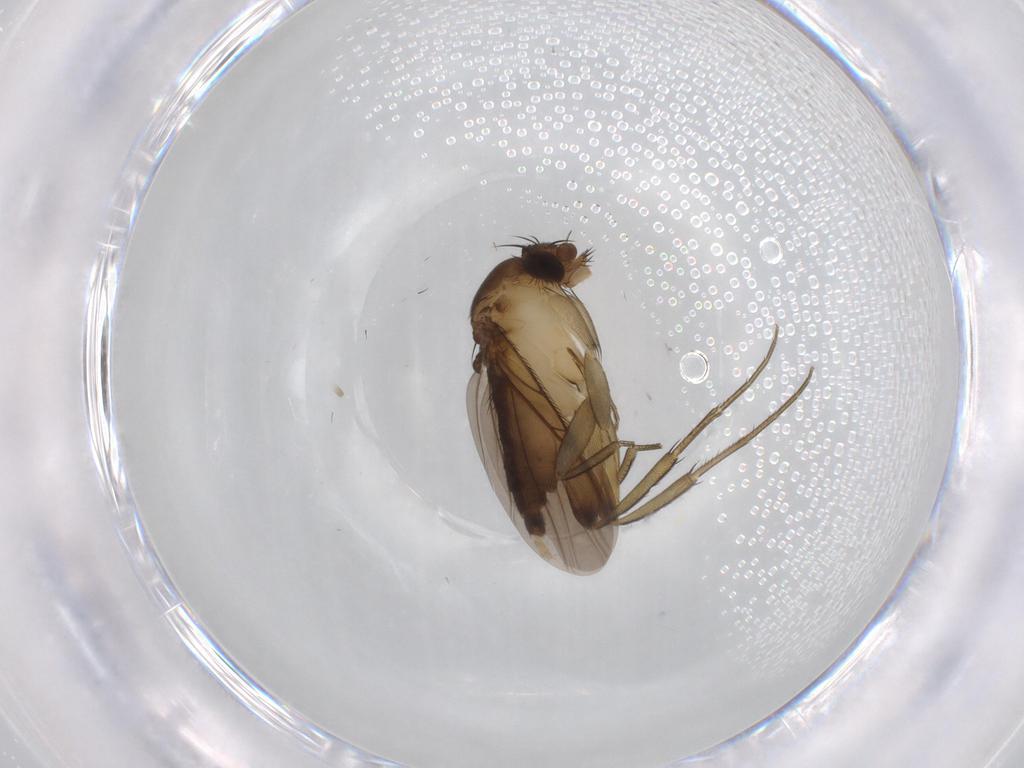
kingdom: Animalia
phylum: Arthropoda
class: Insecta
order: Diptera
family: Phoridae
